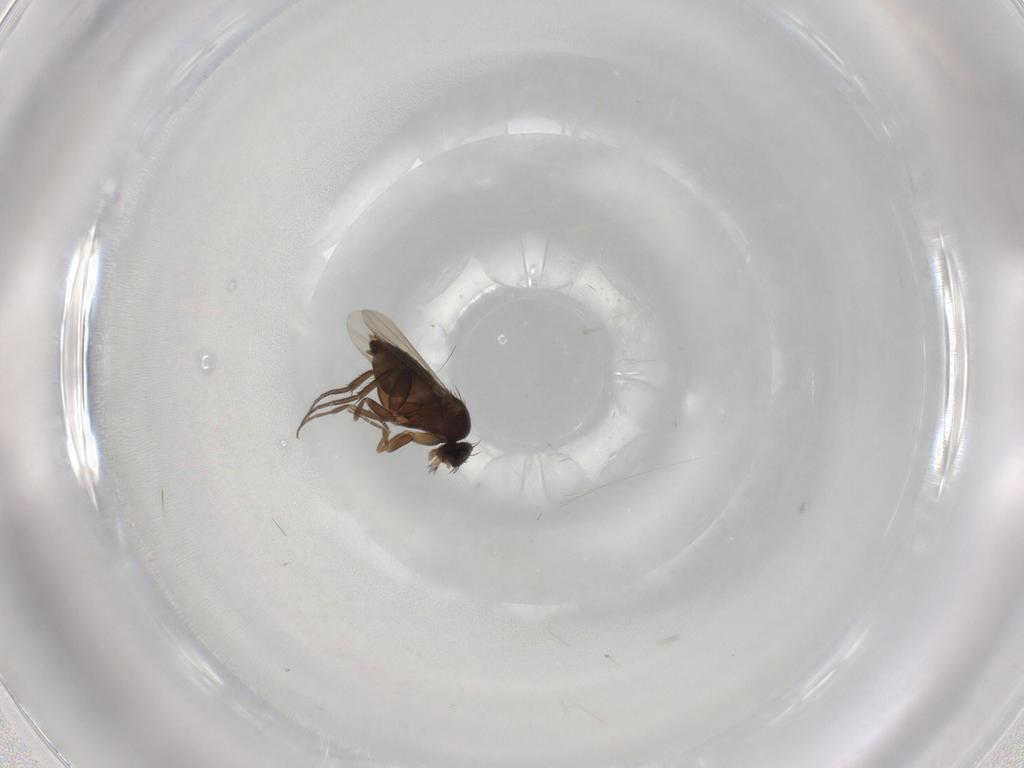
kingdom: Animalia
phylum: Arthropoda
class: Insecta
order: Diptera
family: Phoridae
